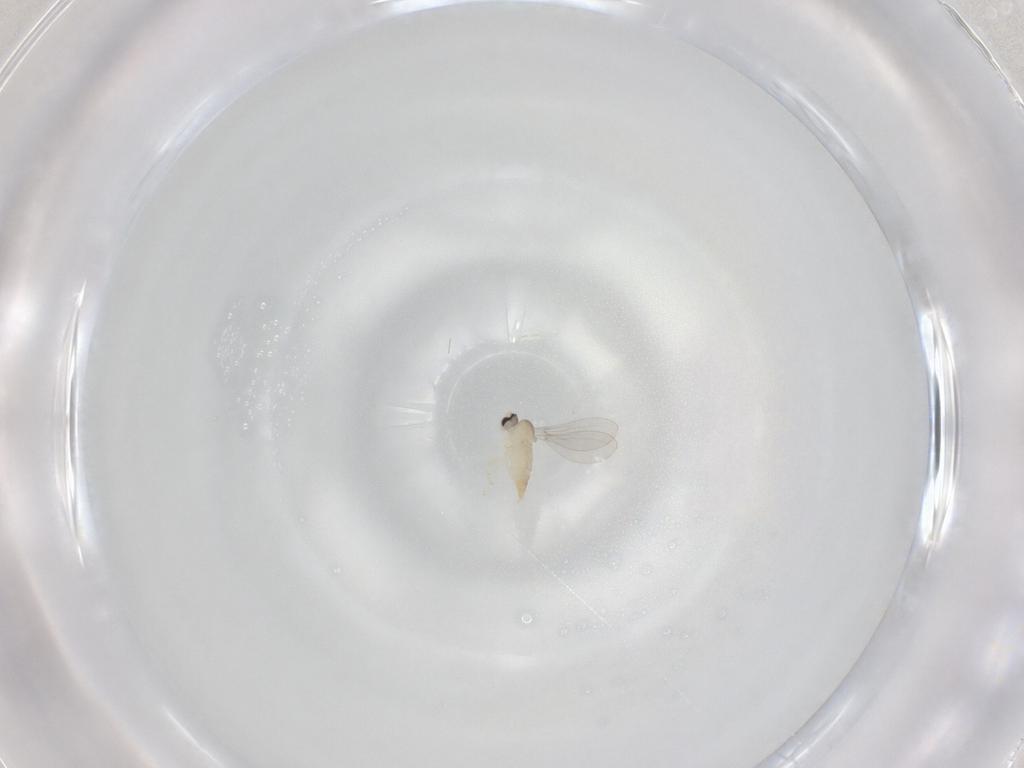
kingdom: Animalia
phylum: Arthropoda
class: Insecta
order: Diptera
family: Cecidomyiidae
